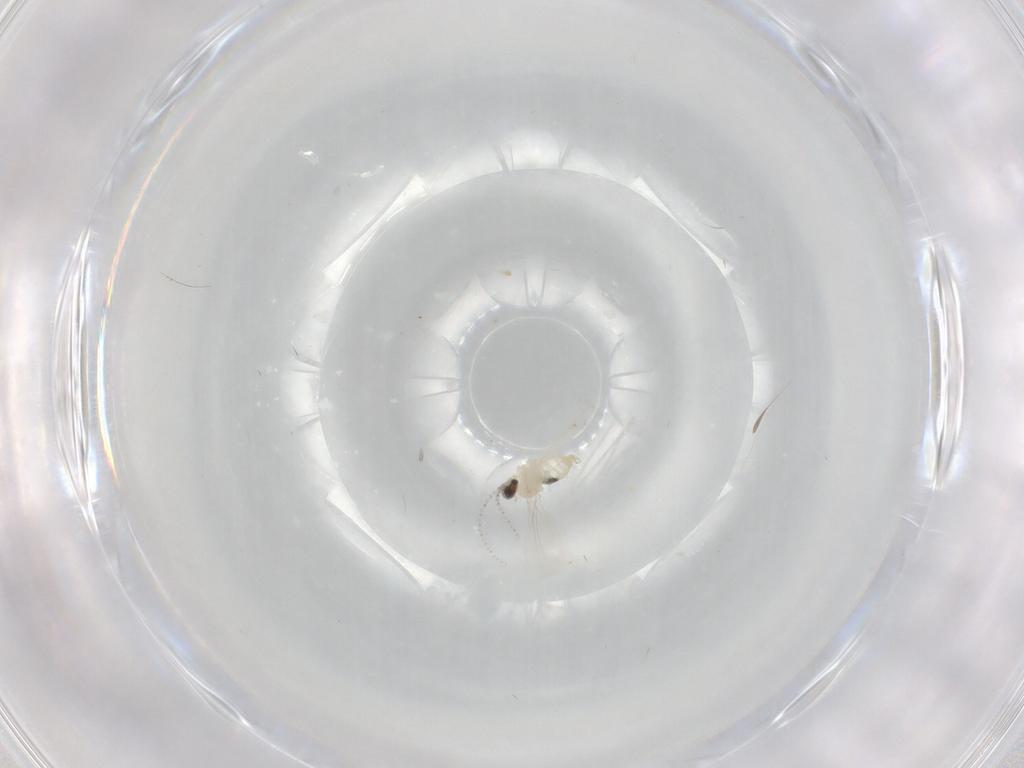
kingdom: Animalia
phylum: Arthropoda
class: Insecta
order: Diptera
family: Cecidomyiidae
